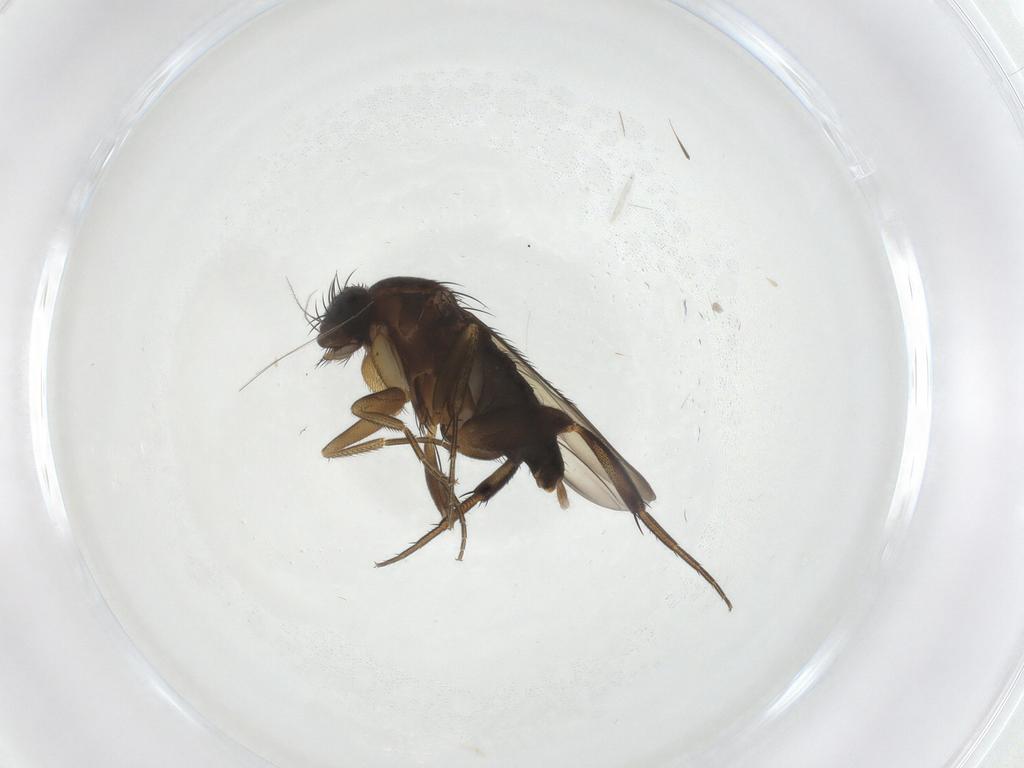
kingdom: Animalia
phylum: Arthropoda
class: Insecta
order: Diptera
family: Phoridae
